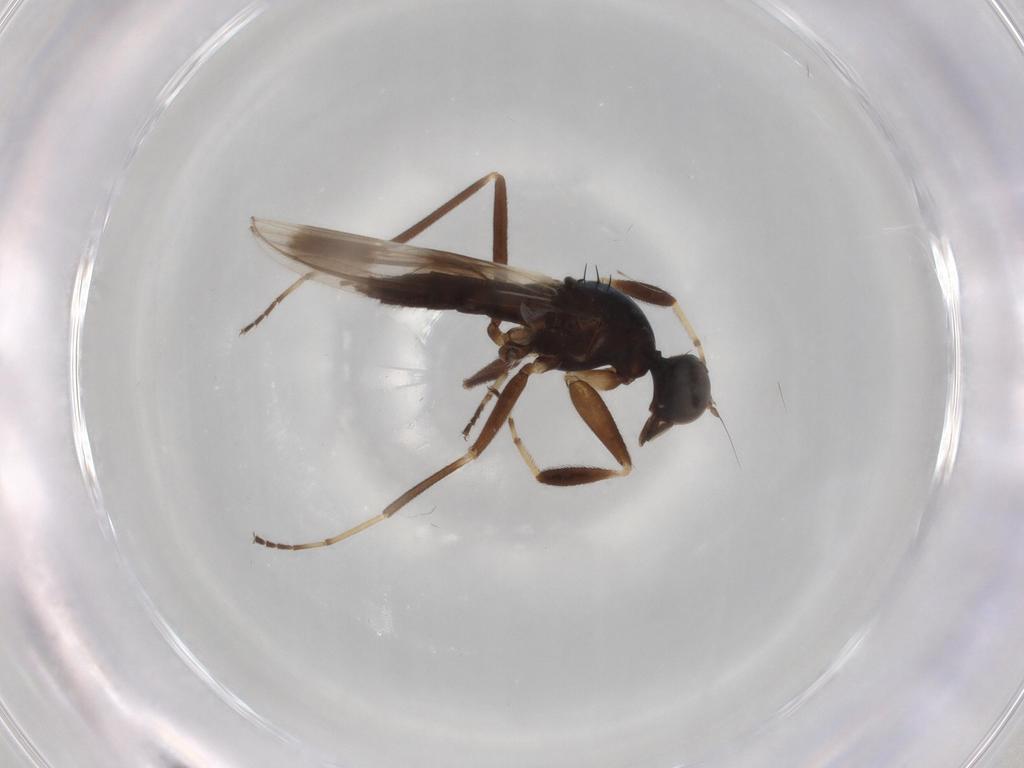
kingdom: Animalia
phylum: Arthropoda
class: Insecta
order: Diptera
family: Hybotidae
